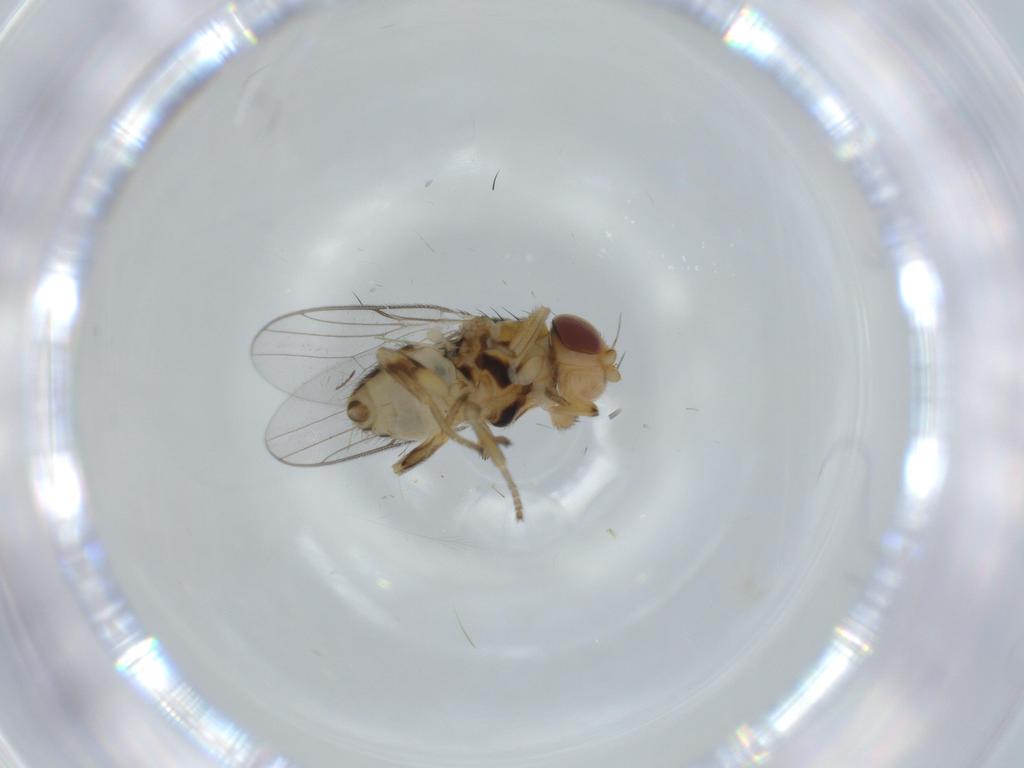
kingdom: Animalia
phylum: Arthropoda
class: Insecta
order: Diptera
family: Chloropidae
